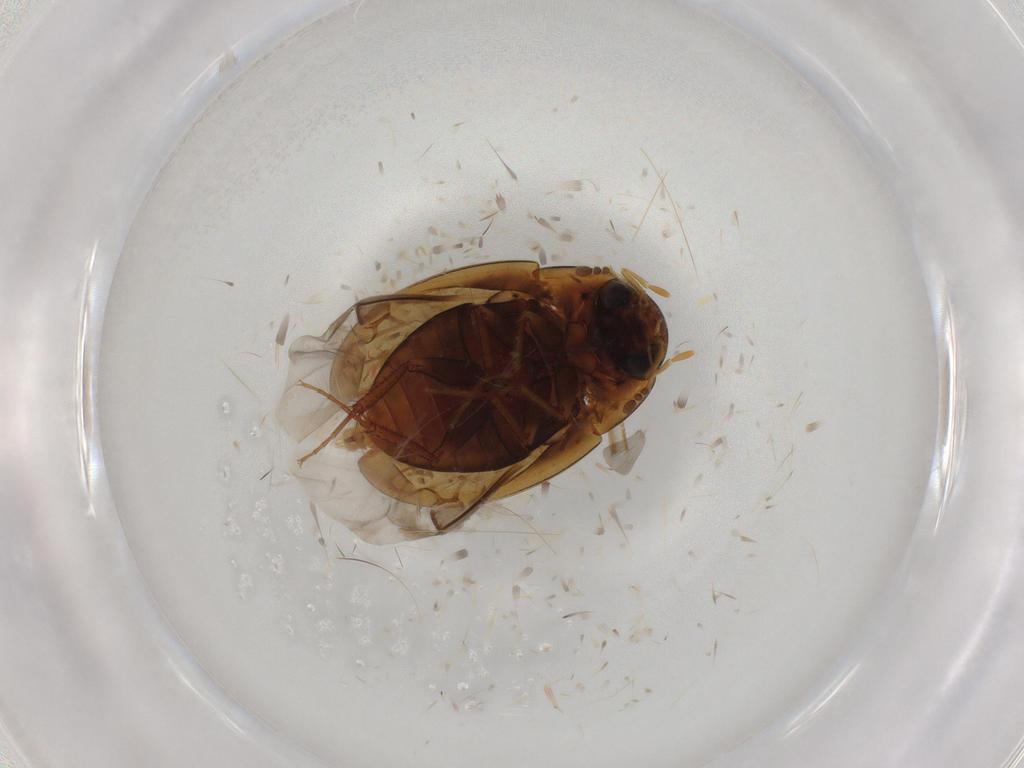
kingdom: Animalia
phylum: Arthropoda
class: Insecta
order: Coleoptera
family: Hydrophilidae
